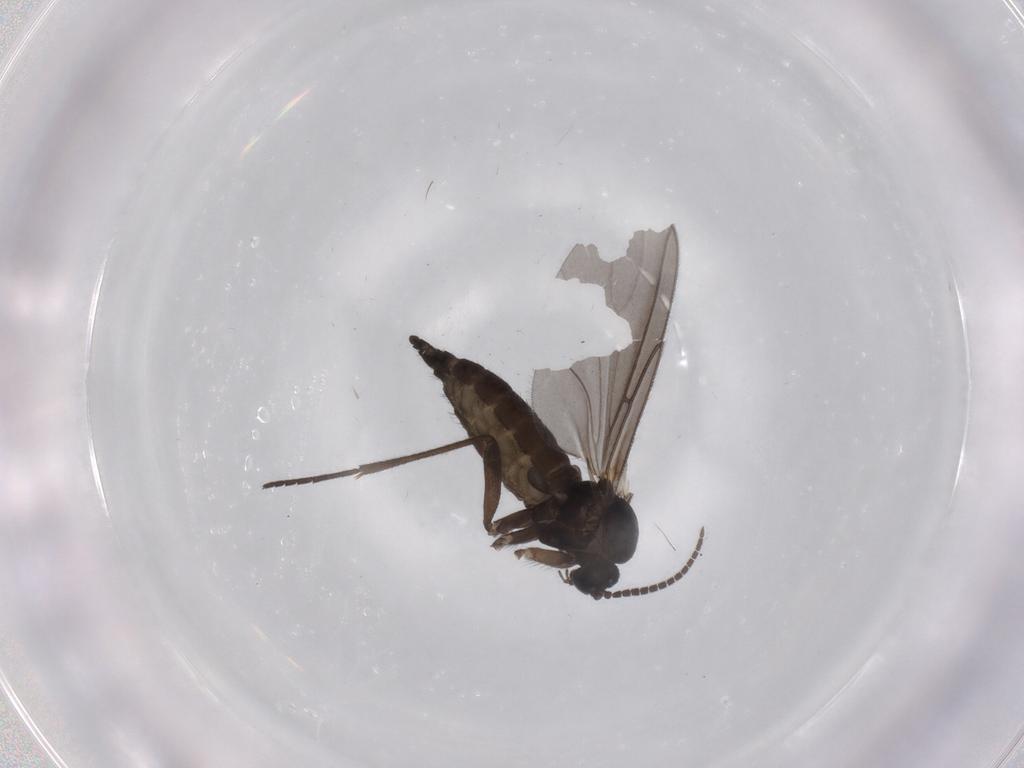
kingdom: Animalia
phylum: Arthropoda
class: Insecta
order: Diptera
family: Sciaridae
